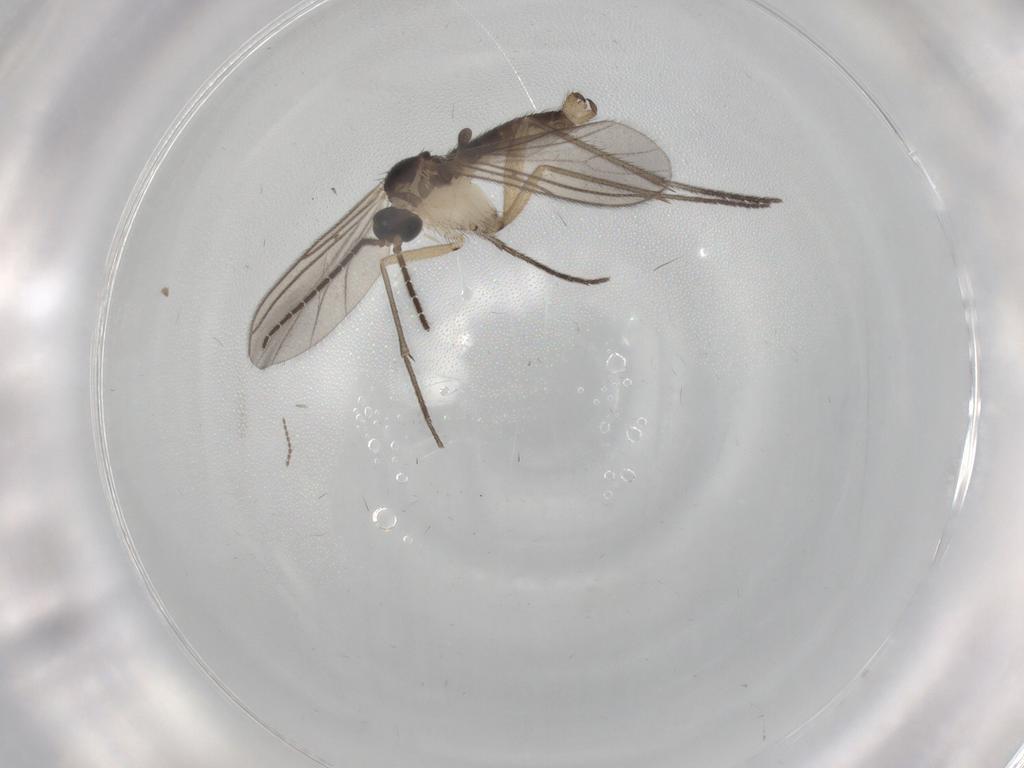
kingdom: Animalia
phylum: Arthropoda
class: Insecta
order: Diptera
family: Sciaridae
